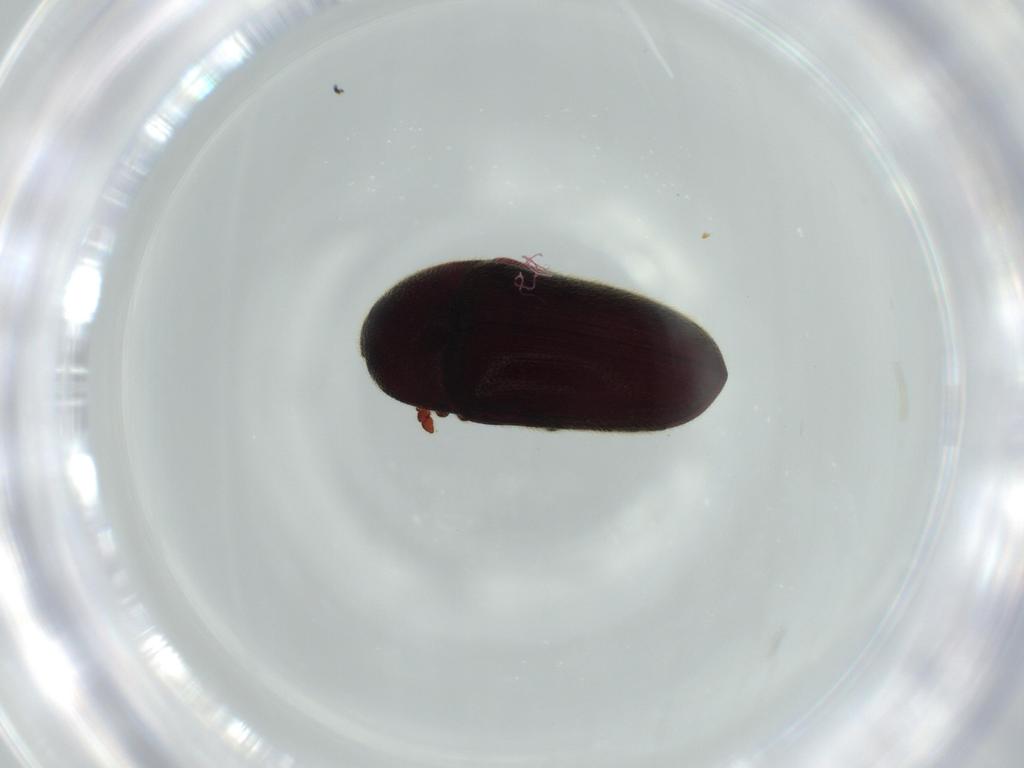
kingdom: Animalia
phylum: Arthropoda
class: Insecta
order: Coleoptera
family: Throscidae
